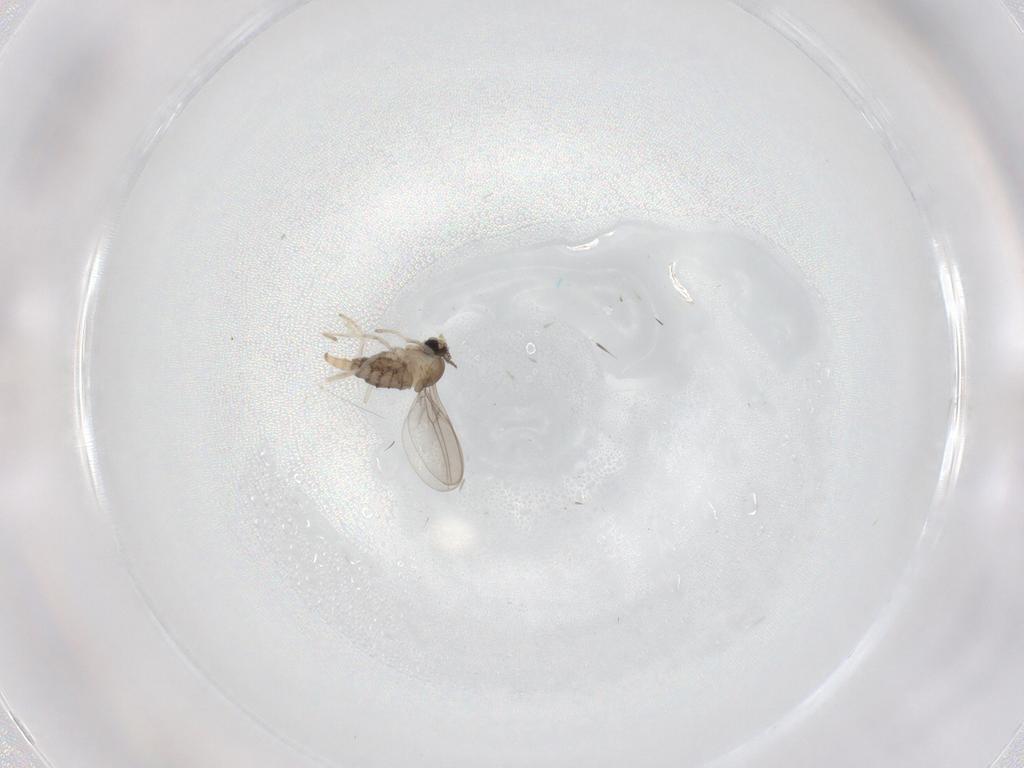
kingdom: Animalia
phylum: Arthropoda
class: Insecta
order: Diptera
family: Cecidomyiidae
